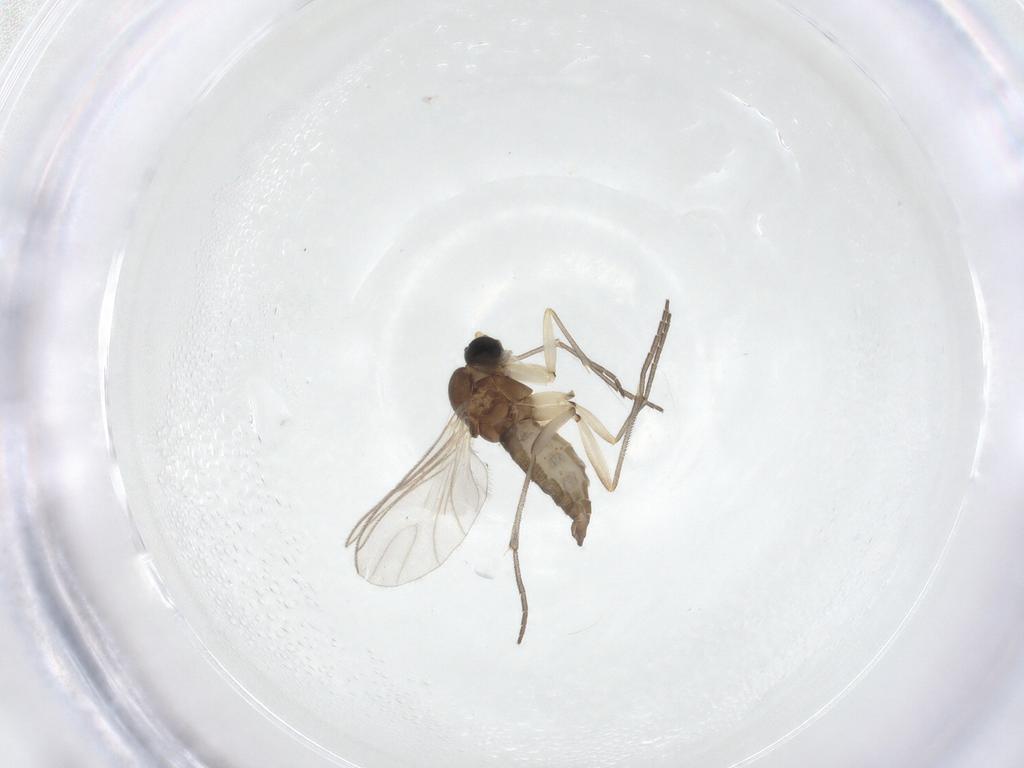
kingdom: Animalia
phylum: Arthropoda
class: Insecta
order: Diptera
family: Sciaridae
